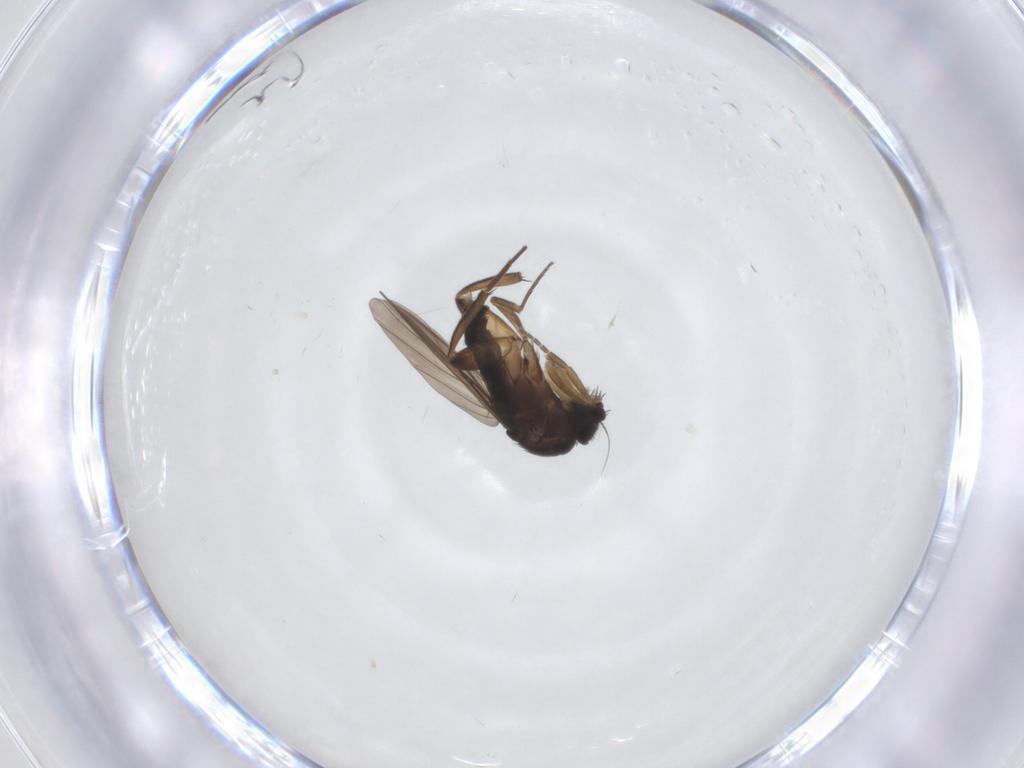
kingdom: Animalia
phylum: Arthropoda
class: Insecta
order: Diptera
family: Phoridae
